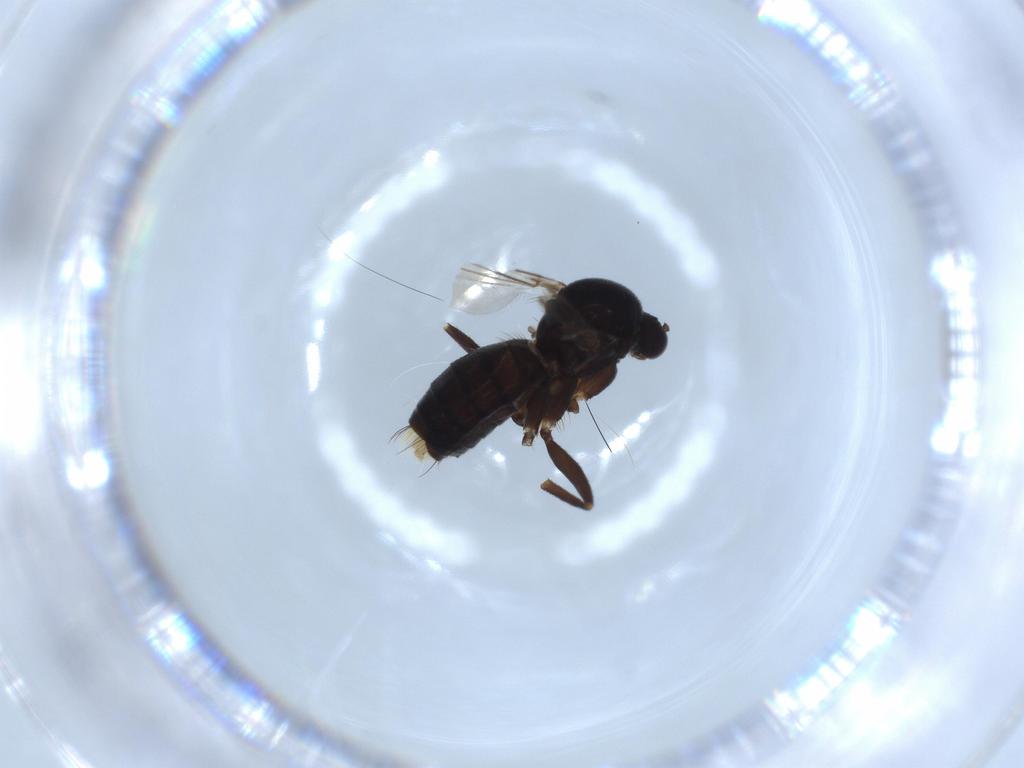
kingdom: Animalia
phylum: Arthropoda
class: Insecta
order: Diptera
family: Mycetophilidae
